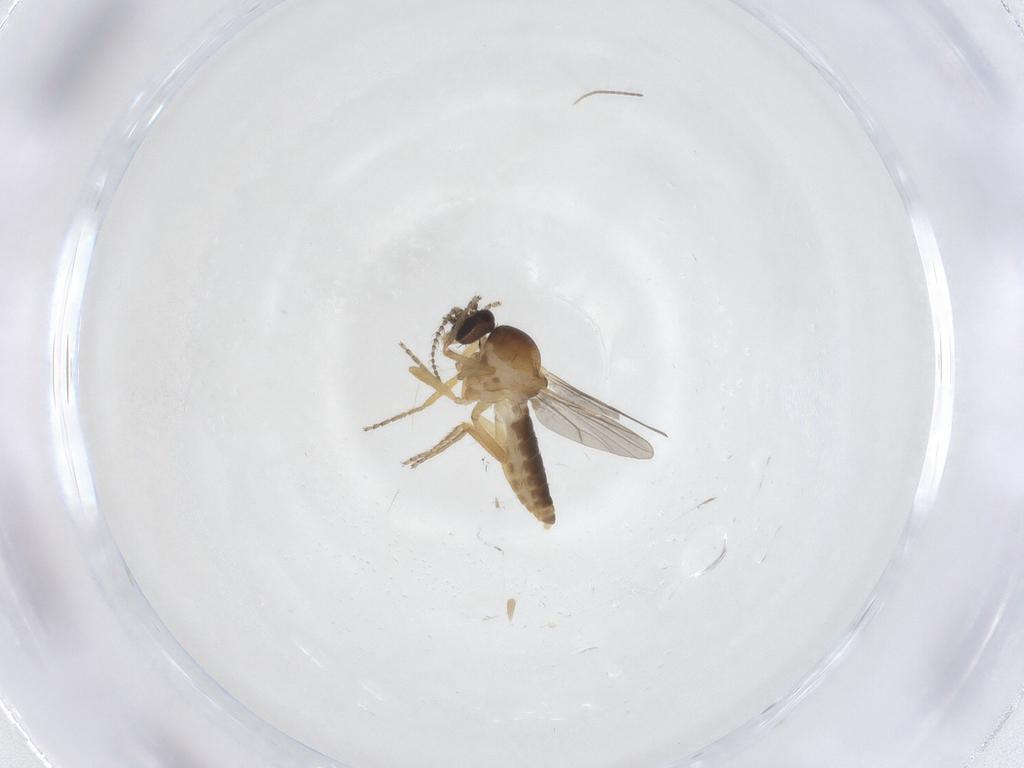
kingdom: Animalia
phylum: Arthropoda
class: Insecta
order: Diptera
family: Ceratopogonidae
